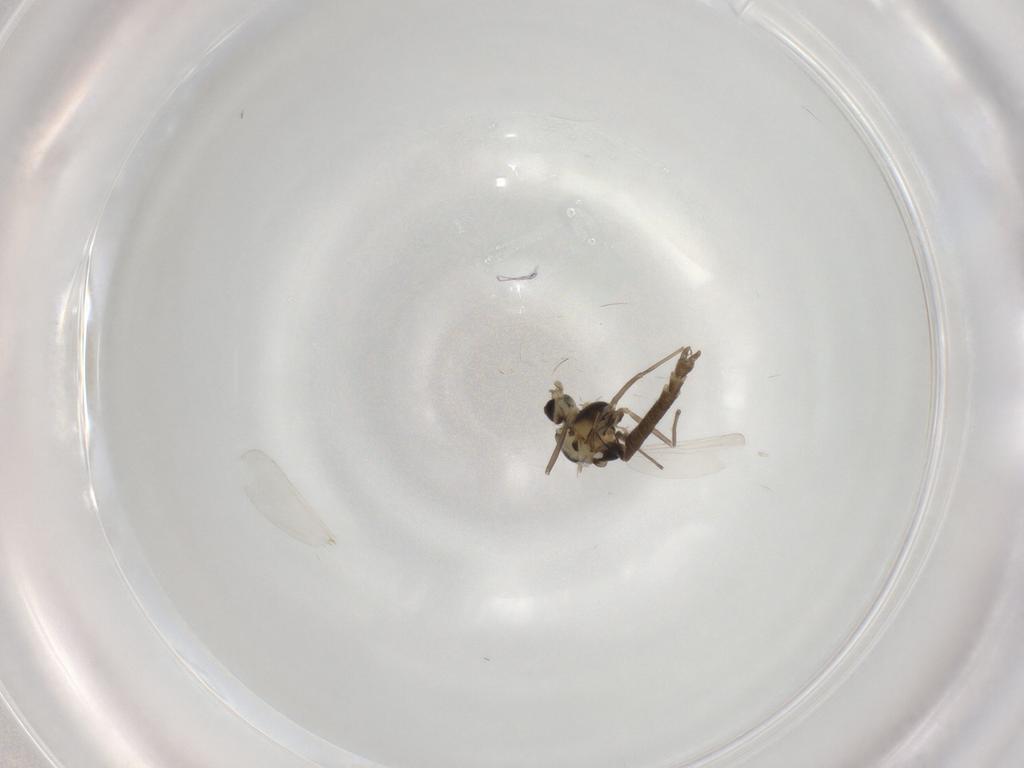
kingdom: Animalia
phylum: Arthropoda
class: Insecta
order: Diptera
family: Chironomidae
